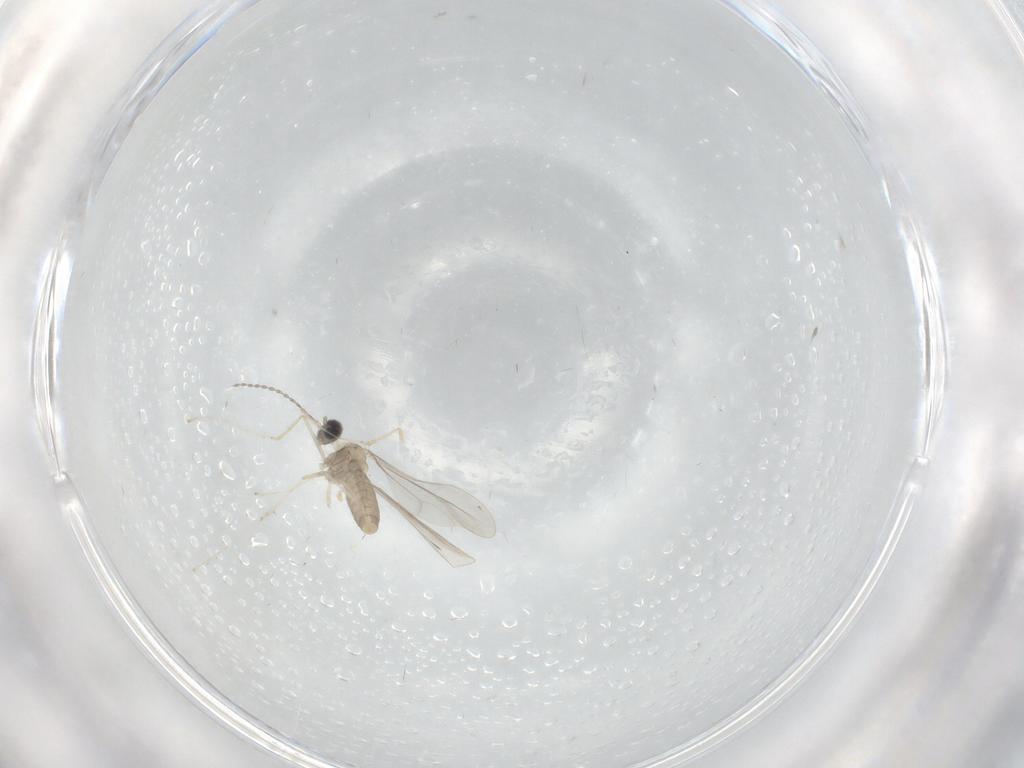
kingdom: Animalia
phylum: Arthropoda
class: Insecta
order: Diptera
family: Cecidomyiidae
